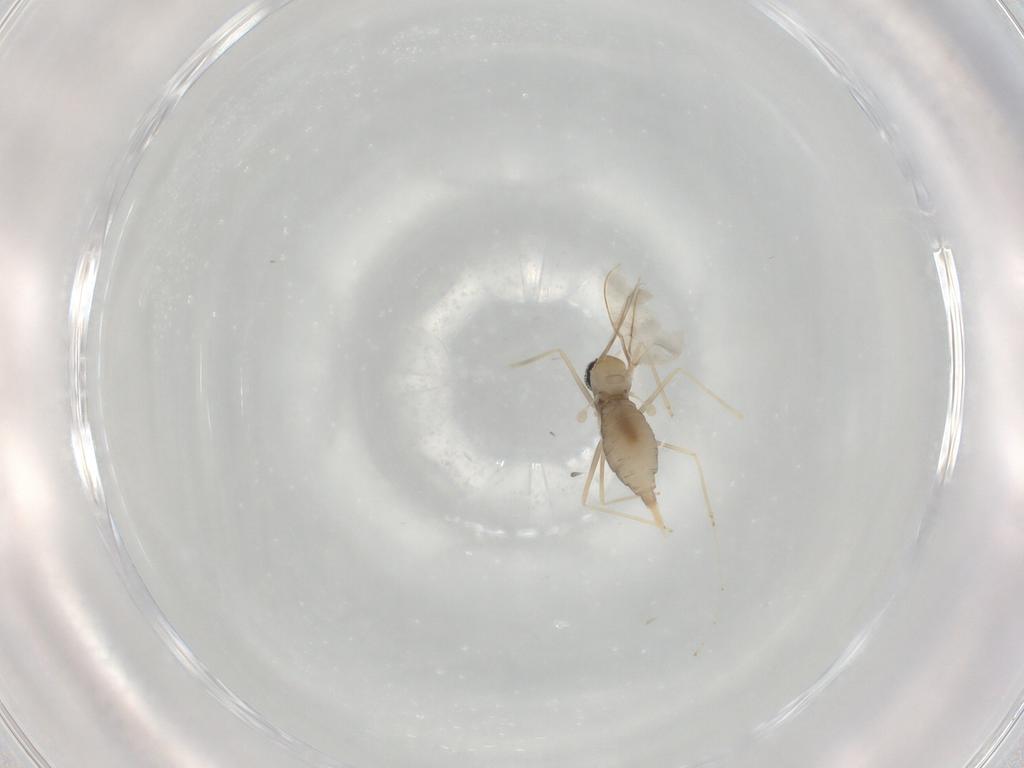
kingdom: Animalia
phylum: Arthropoda
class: Insecta
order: Diptera
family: Cecidomyiidae
